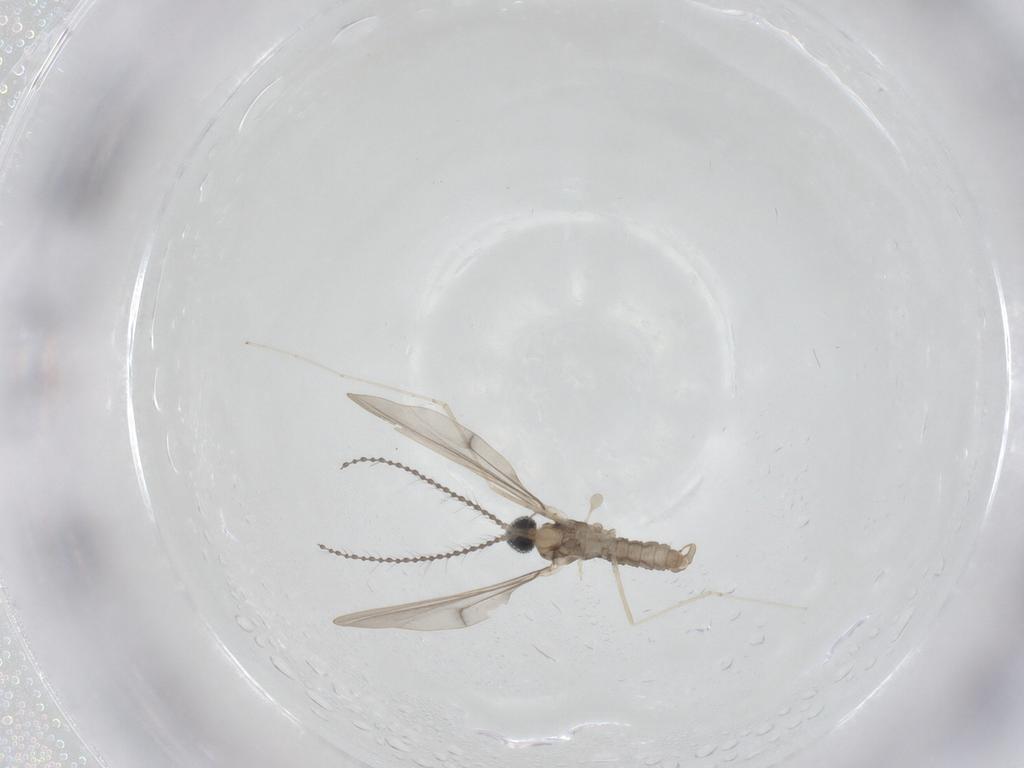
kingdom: Animalia
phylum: Arthropoda
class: Insecta
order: Diptera
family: Cecidomyiidae
